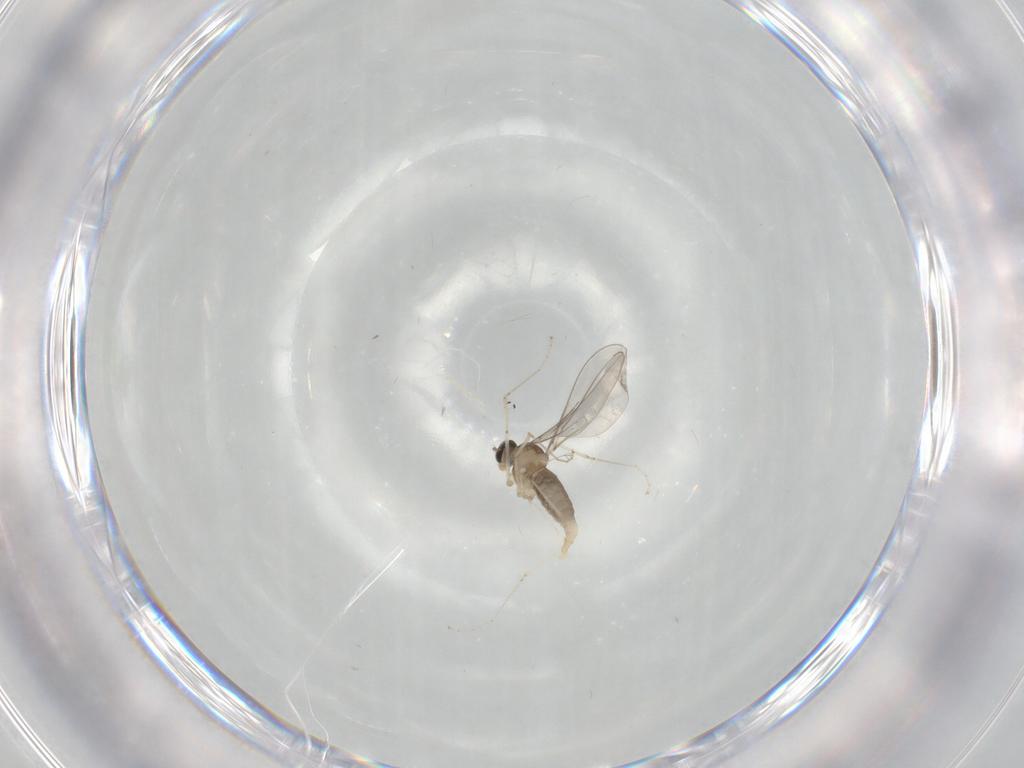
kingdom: Animalia
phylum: Arthropoda
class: Insecta
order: Diptera
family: Cecidomyiidae
